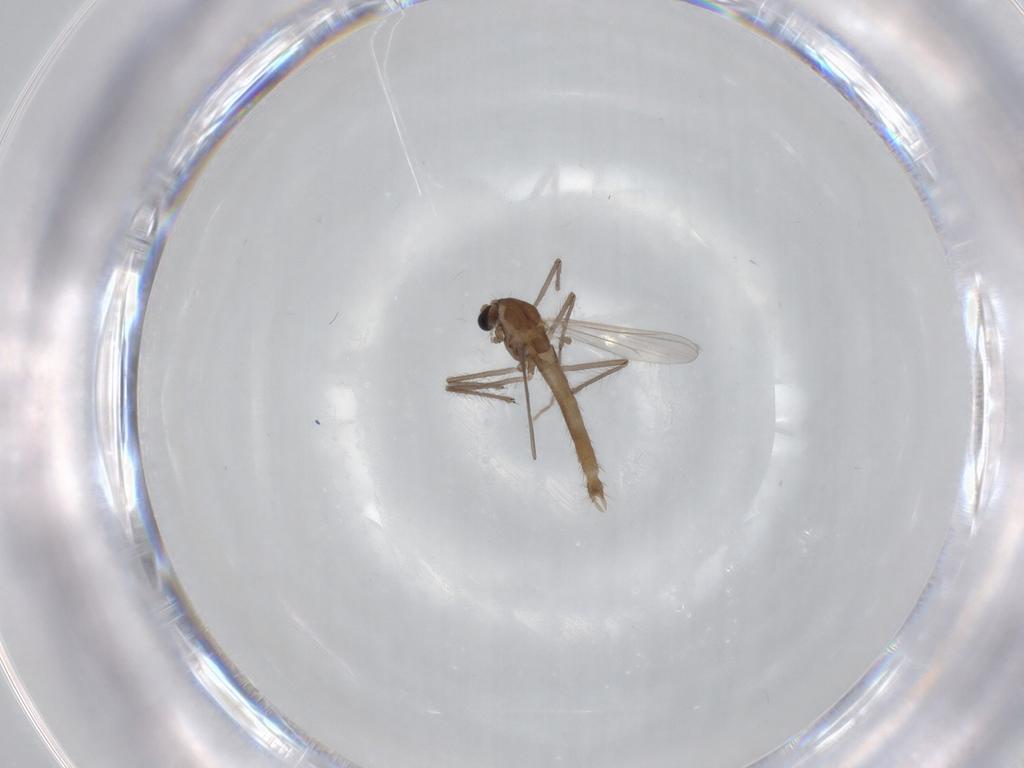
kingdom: Animalia
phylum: Arthropoda
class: Insecta
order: Diptera
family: Chironomidae
